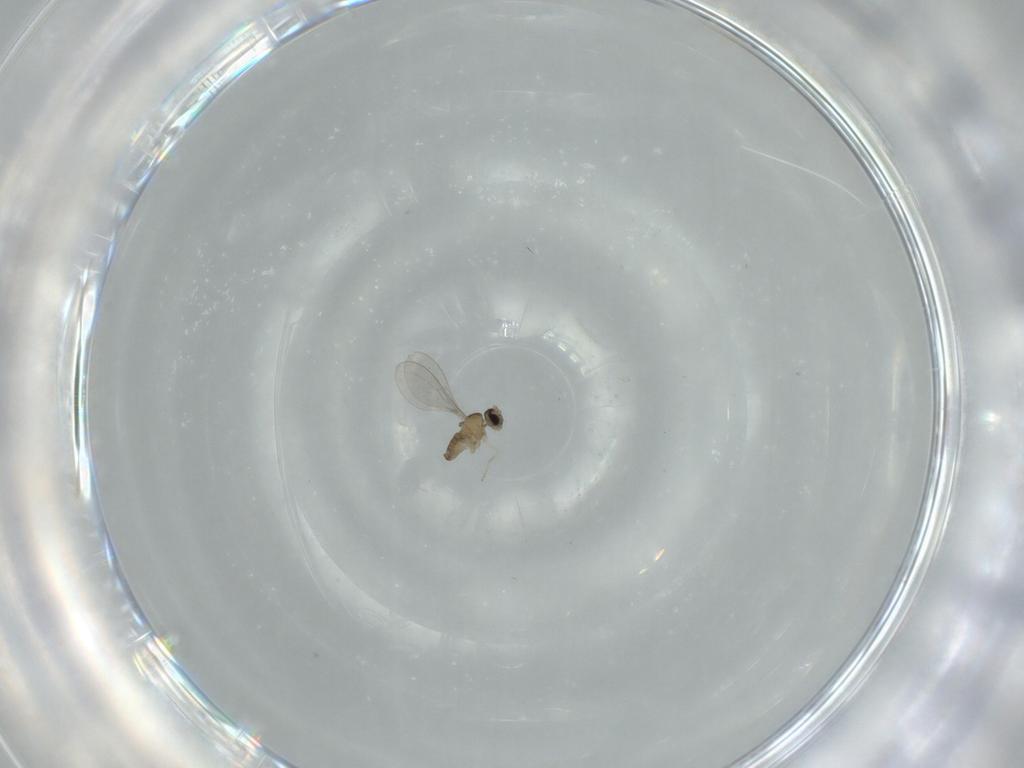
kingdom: Animalia
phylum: Arthropoda
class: Insecta
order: Diptera
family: Cecidomyiidae
